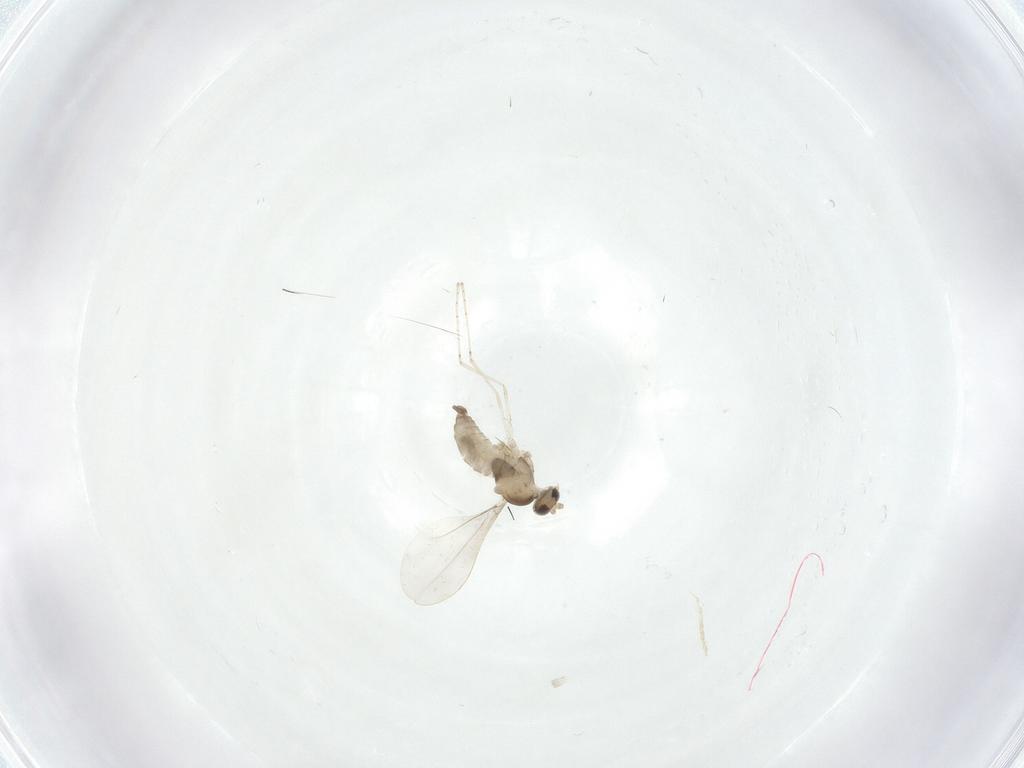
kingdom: Animalia
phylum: Arthropoda
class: Insecta
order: Diptera
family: Cecidomyiidae
